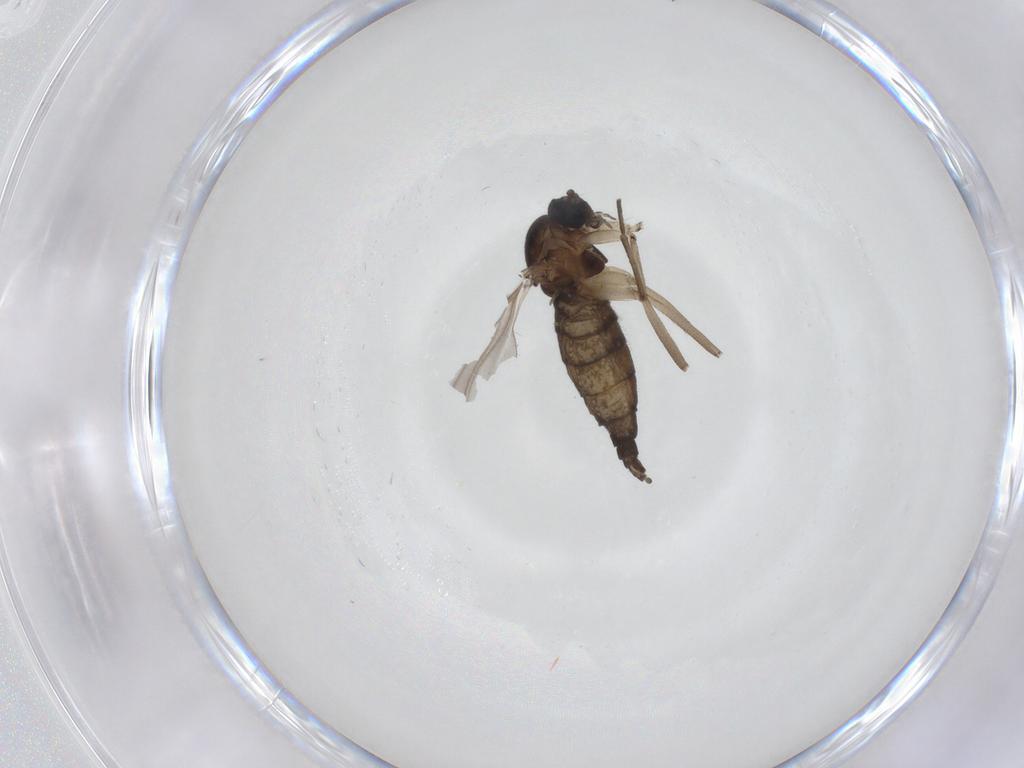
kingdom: Animalia
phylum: Arthropoda
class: Insecta
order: Diptera
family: Sciaridae
